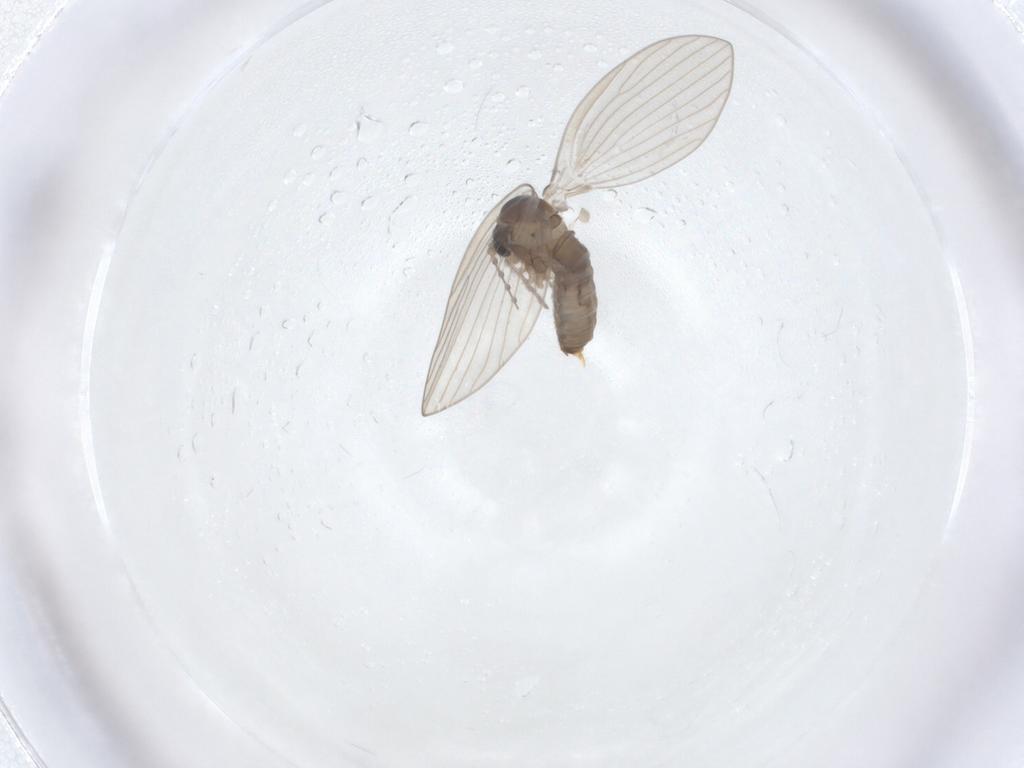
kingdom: Animalia
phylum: Arthropoda
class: Insecta
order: Diptera
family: Psychodidae
